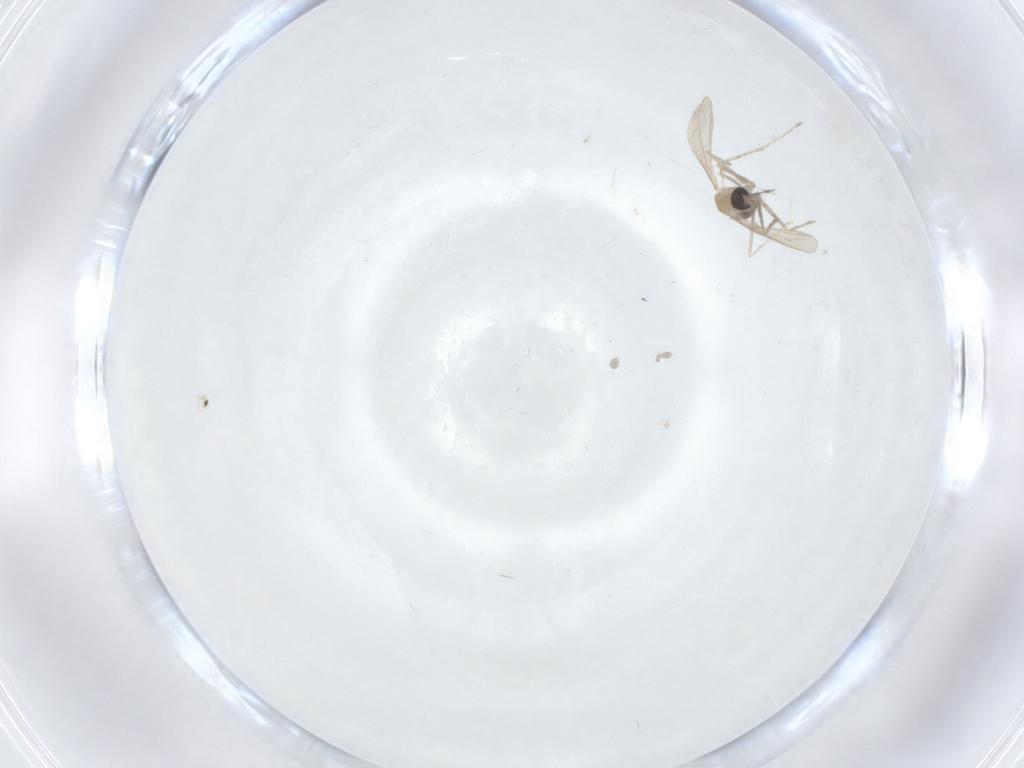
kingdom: Animalia
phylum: Arthropoda
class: Insecta
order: Diptera
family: Cecidomyiidae
